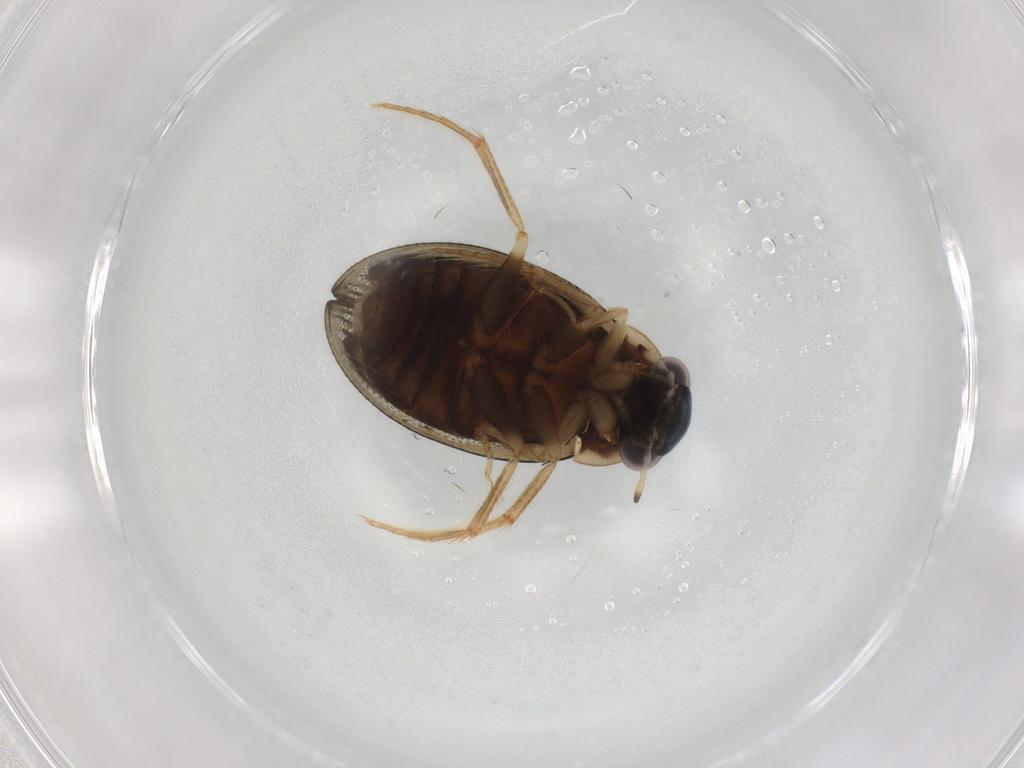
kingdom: Animalia
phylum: Arthropoda
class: Insecta
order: Coleoptera
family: Hydrophilidae
